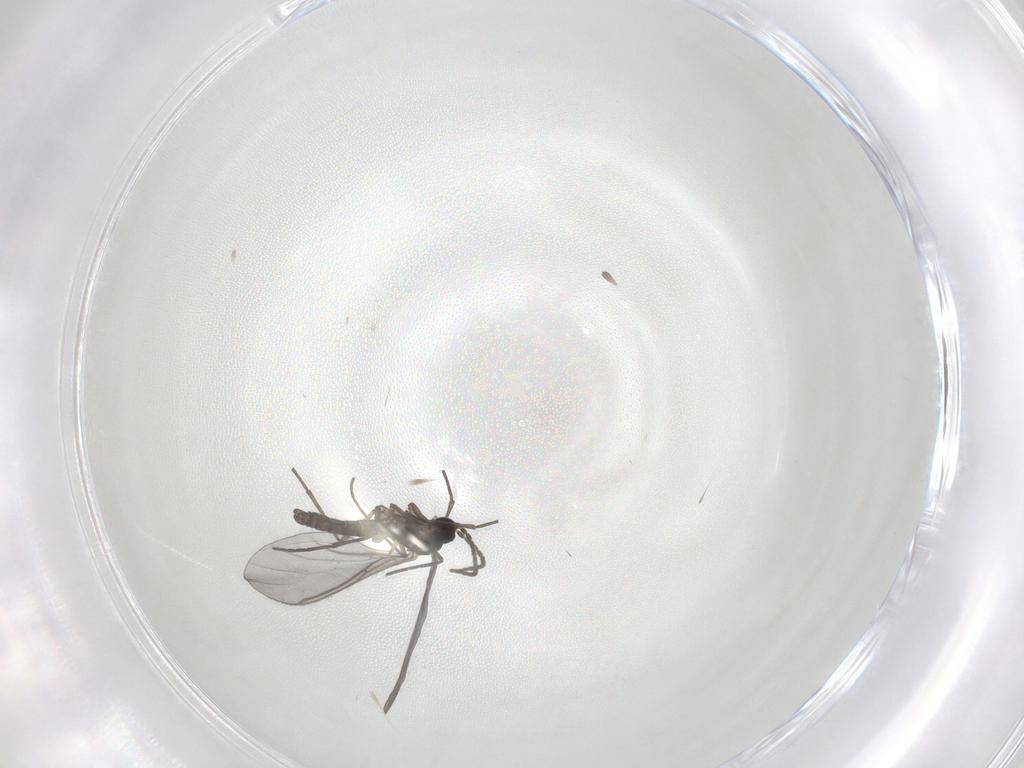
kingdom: Animalia
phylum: Arthropoda
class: Insecta
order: Diptera
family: Sciaridae
